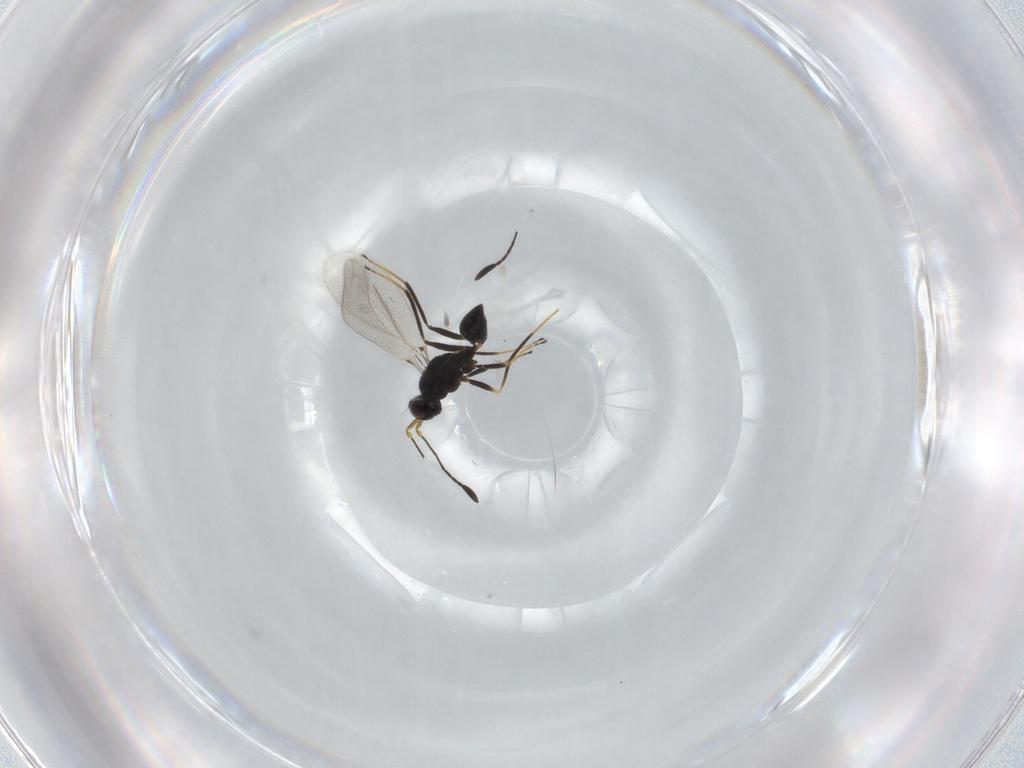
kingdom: Animalia
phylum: Arthropoda
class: Insecta
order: Hymenoptera
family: Mymaridae
